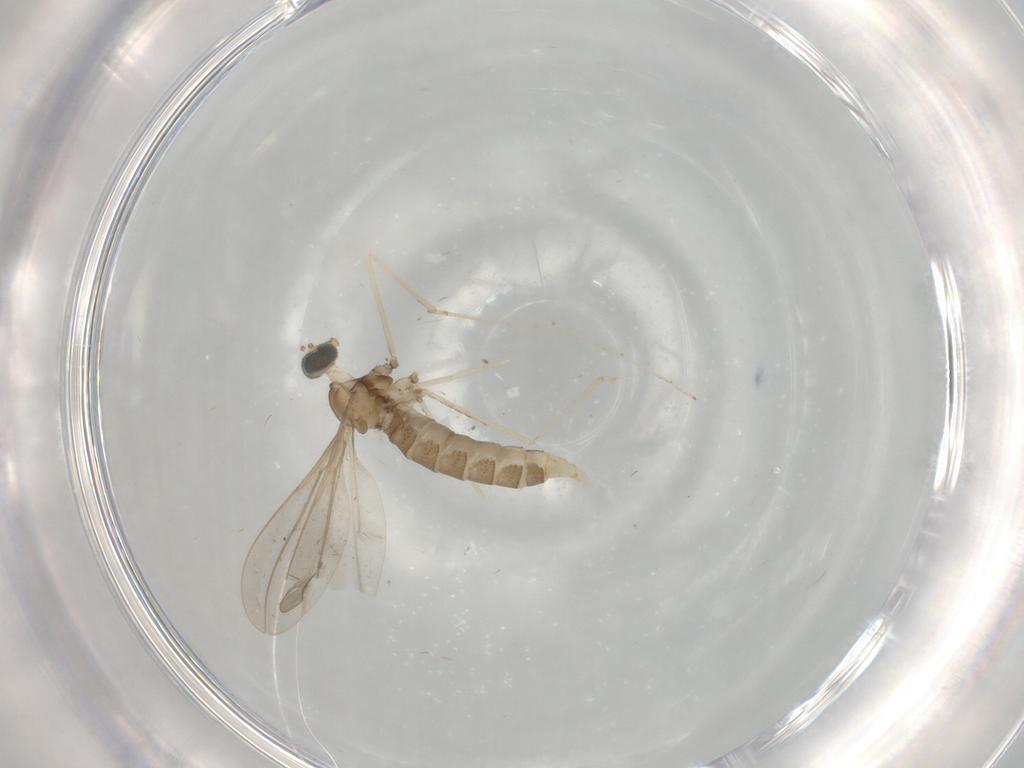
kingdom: Animalia
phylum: Arthropoda
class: Insecta
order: Diptera
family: Cecidomyiidae
